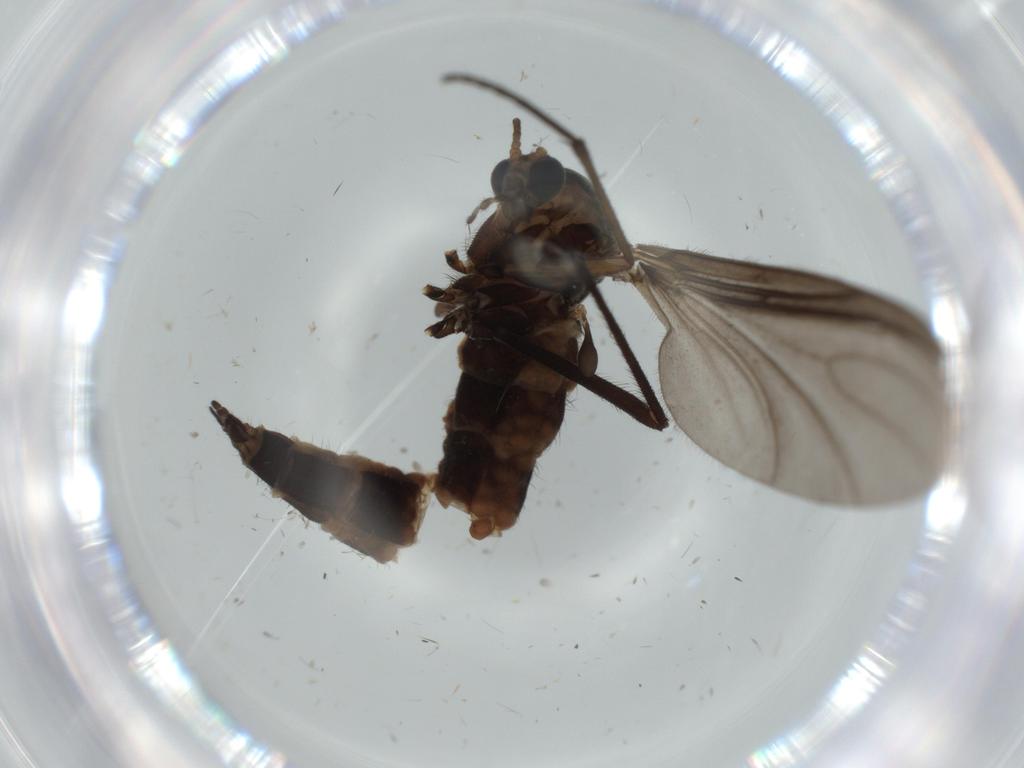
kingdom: Animalia
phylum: Arthropoda
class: Insecta
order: Diptera
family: Sciaridae
